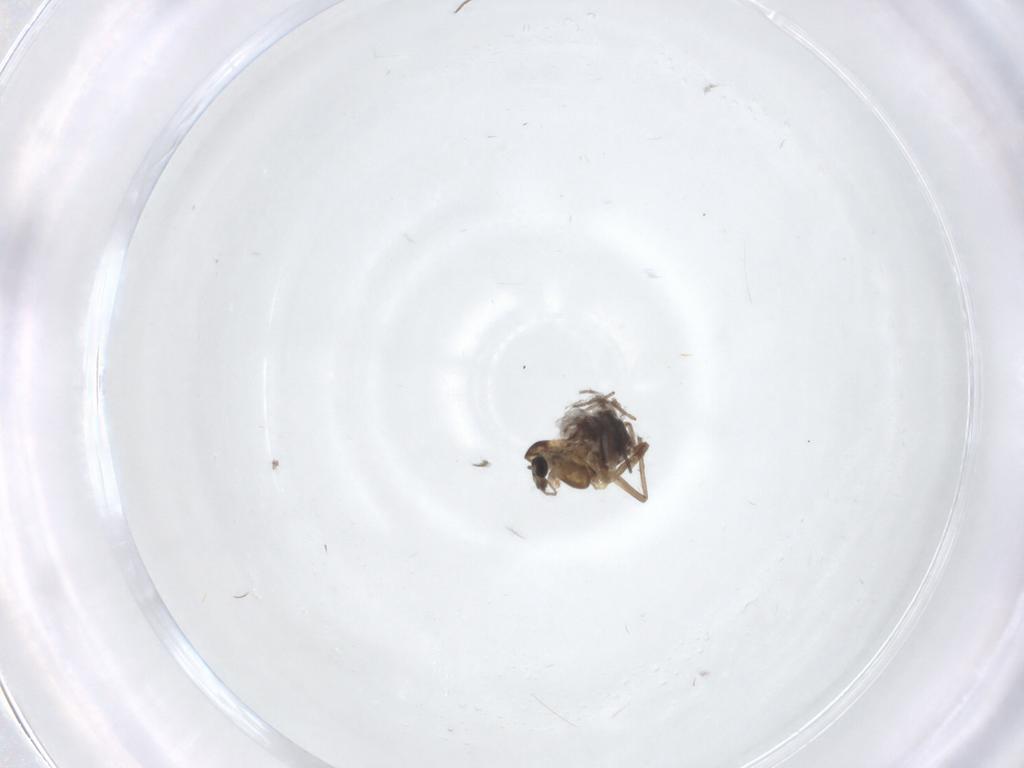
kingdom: Animalia
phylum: Arthropoda
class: Insecta
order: Diptera
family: Chironomidae
